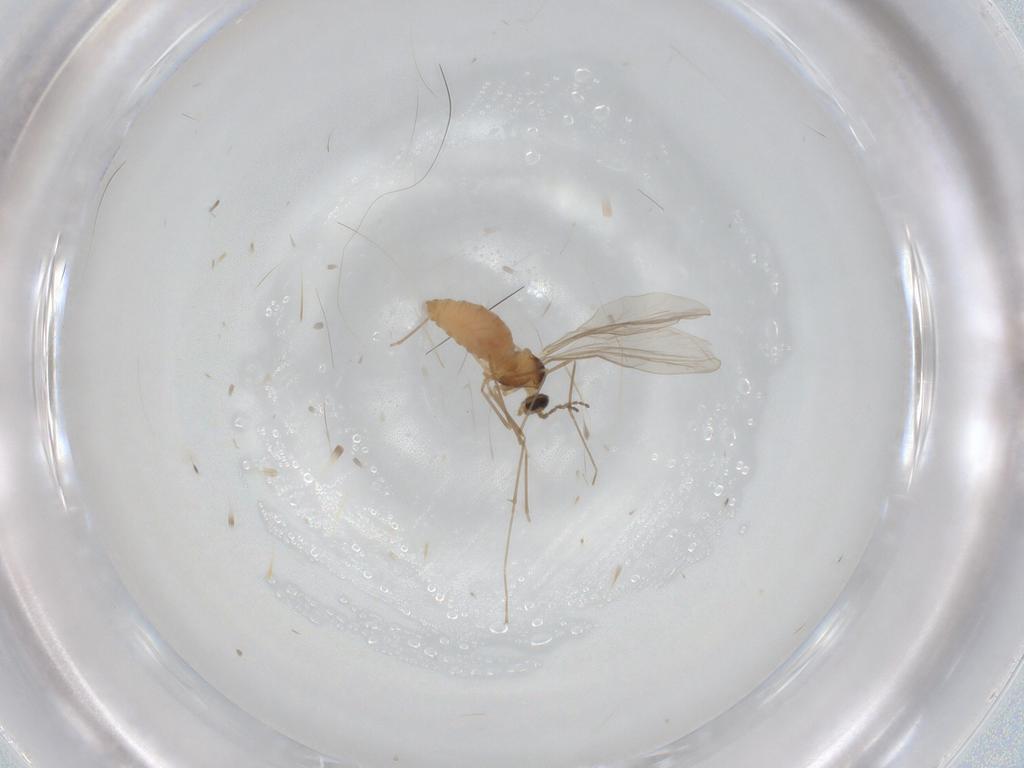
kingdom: Animalia
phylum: Arthropoda
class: Insecta
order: Diptera
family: Cecidomyiidae
